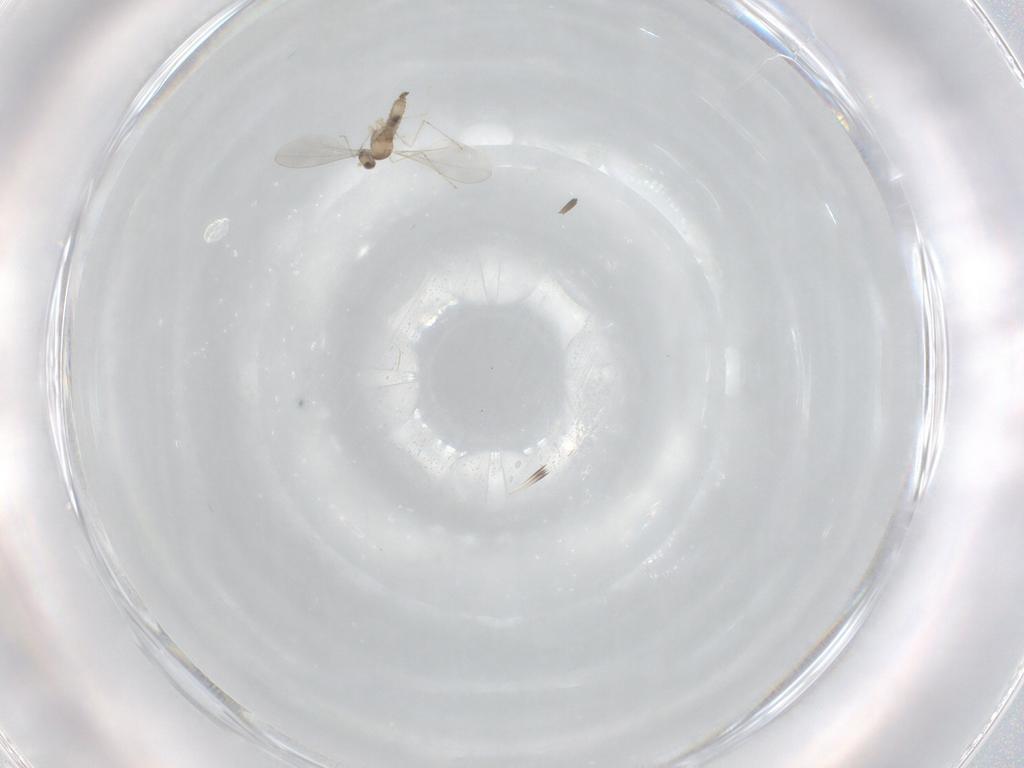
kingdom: Animalia
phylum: Arthropoda
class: Insecta
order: Diptera
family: Cecidomyiidae
